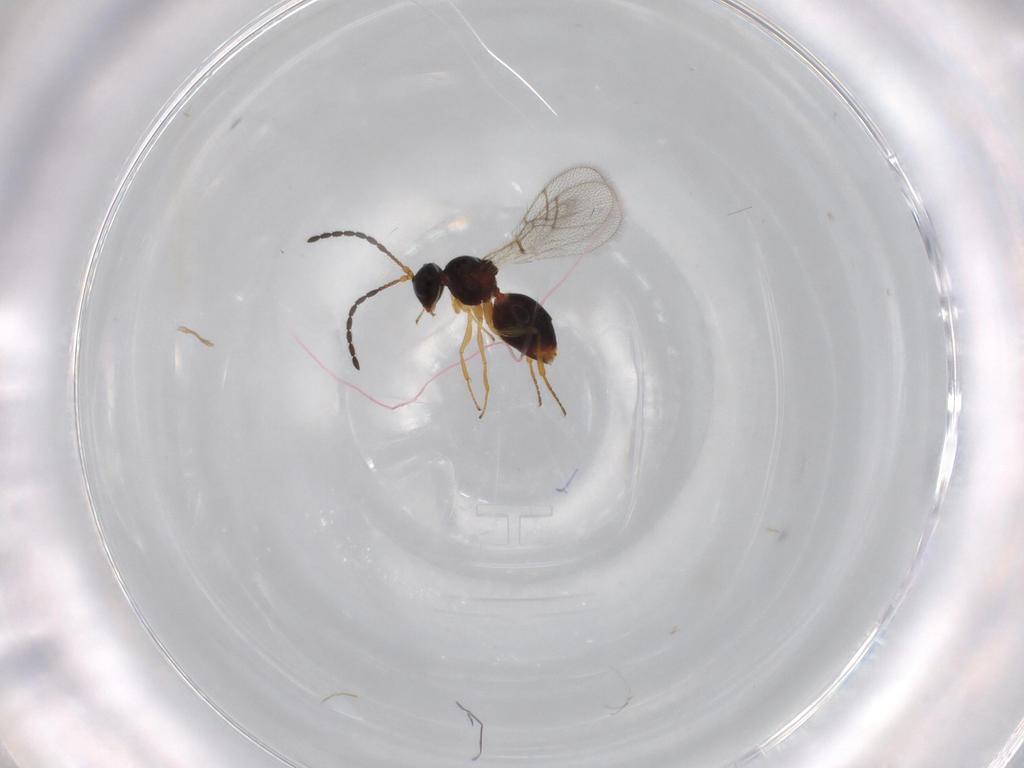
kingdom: Animalia
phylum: Arthropoda
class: Insecta
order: Hymenoptera
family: Figitidae
